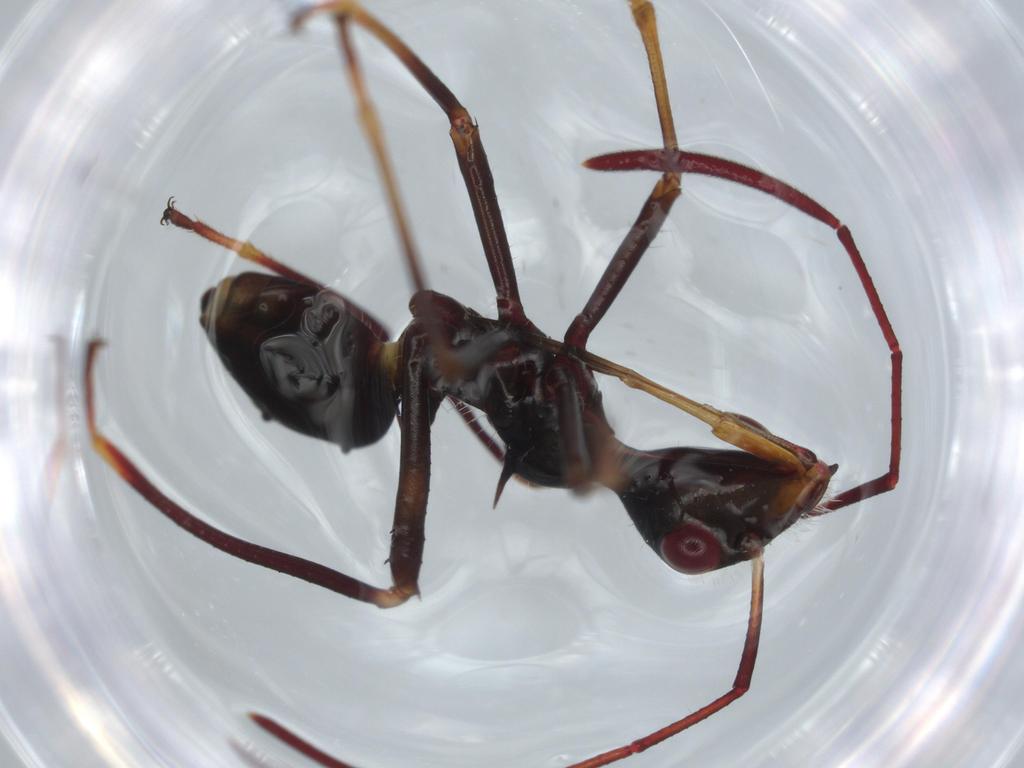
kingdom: Animalia
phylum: Arthropoda
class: Insecta
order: Hemiptera
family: Alydidae
